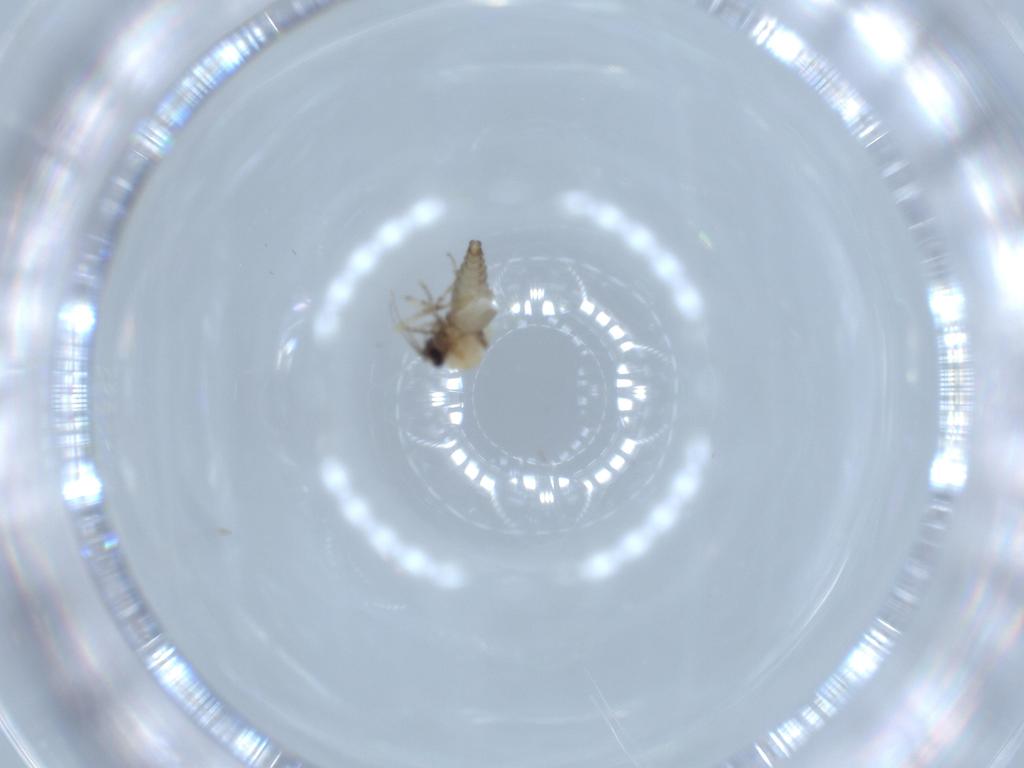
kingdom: Animalia
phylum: Arthropoda
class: Insecta
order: Diptera
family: Ceratopogonidae
